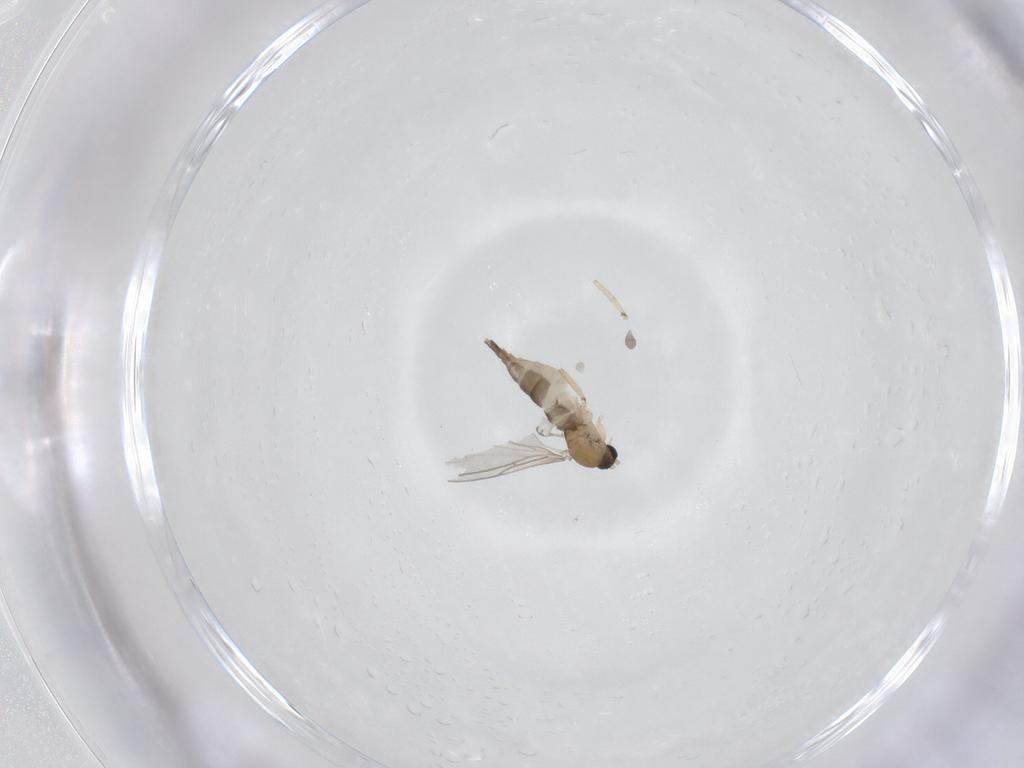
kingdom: Animalia
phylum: Arthropoda
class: Insecta
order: Diptera
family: Sciaridae
